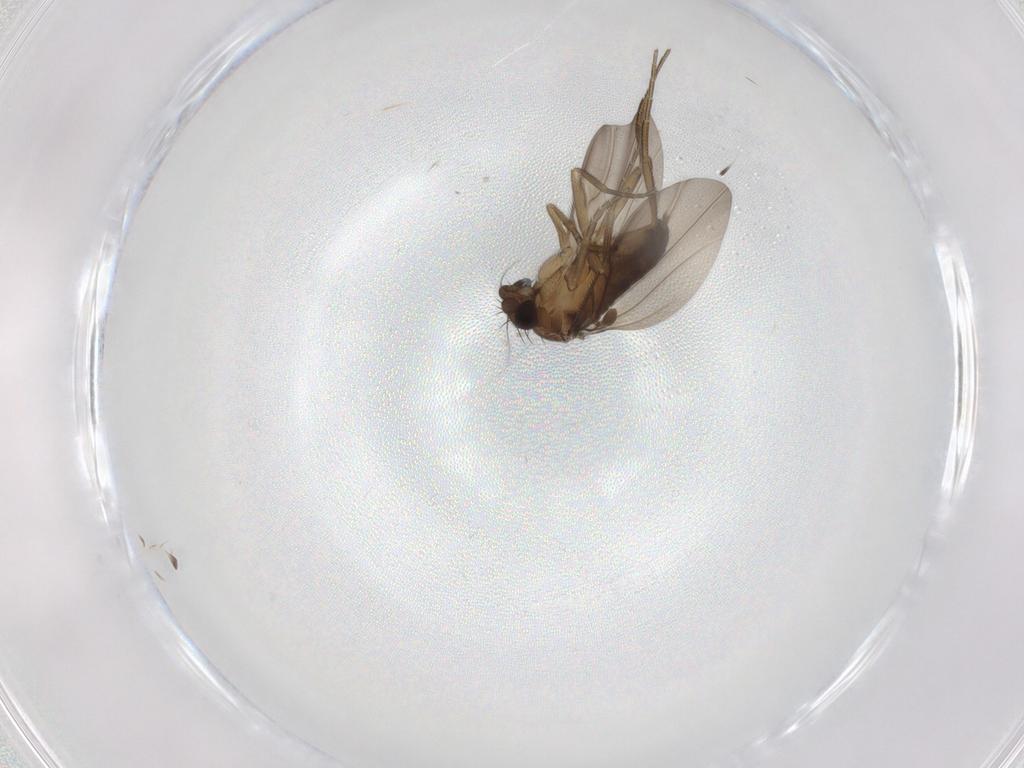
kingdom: Animalia
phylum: Arthropoda
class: Insecta
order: Diptera
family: Phoridae
